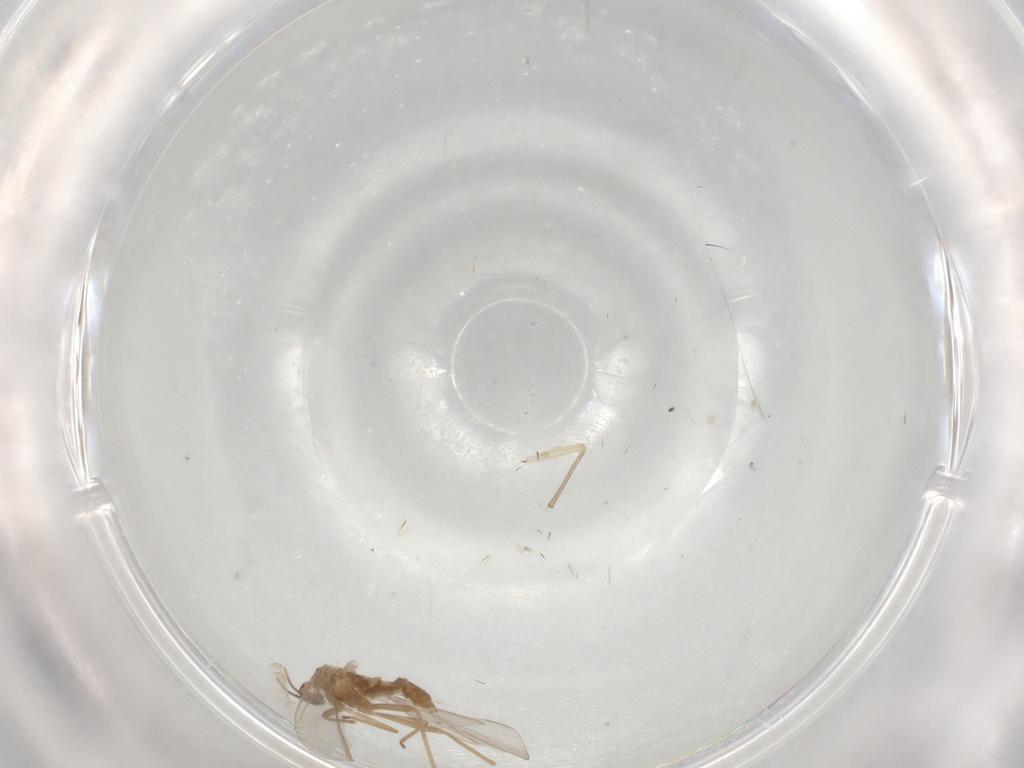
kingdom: Animalia
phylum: Arthropoda
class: Insecta
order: Diptera
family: Cecidomyiidae
